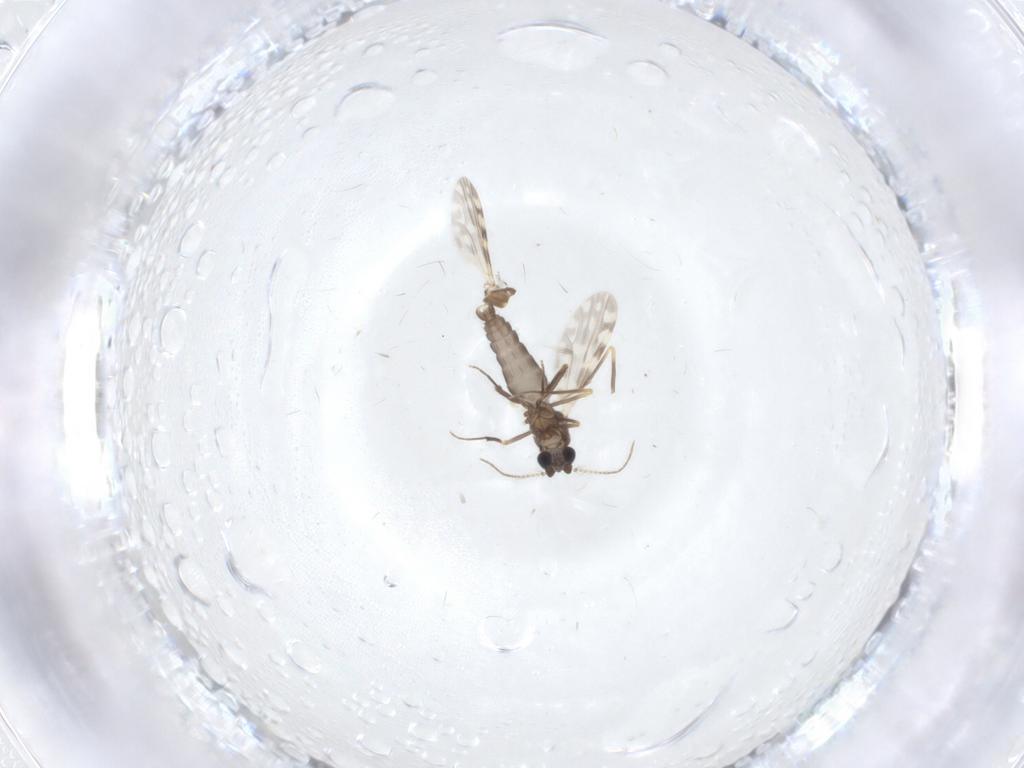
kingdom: Animalia
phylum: Arthropoda
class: Insecta
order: Diptera
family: Ceratopogonidae
